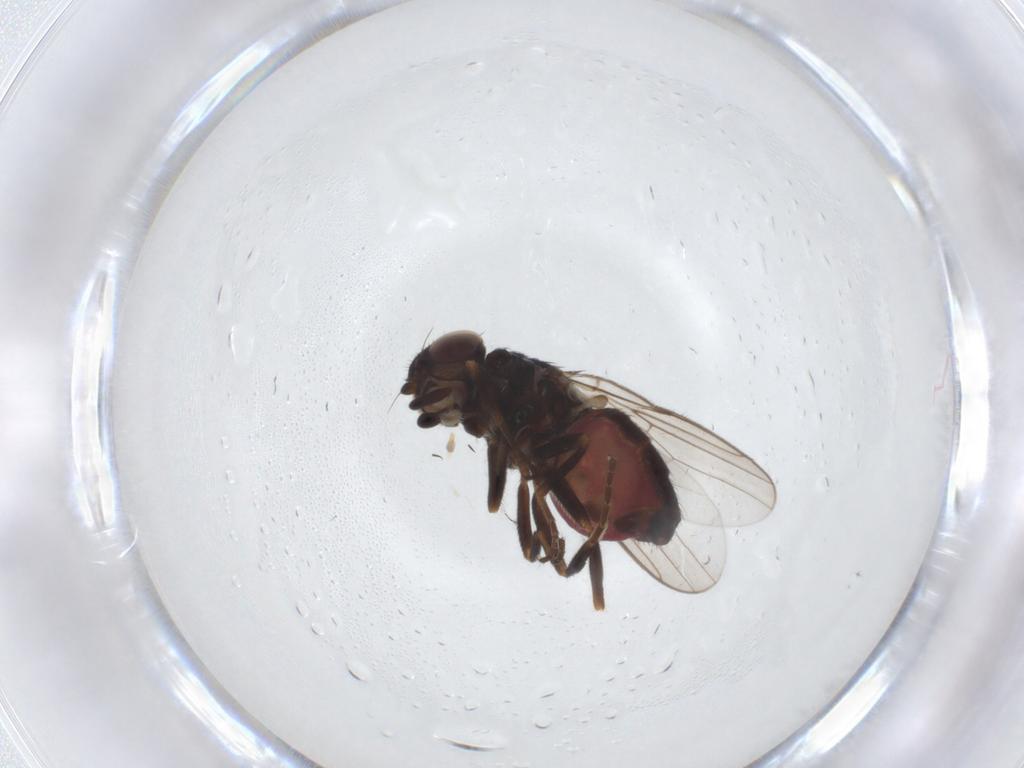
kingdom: Animalia
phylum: Arthropoda
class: Insecta
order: Diptera
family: Chloropidae
